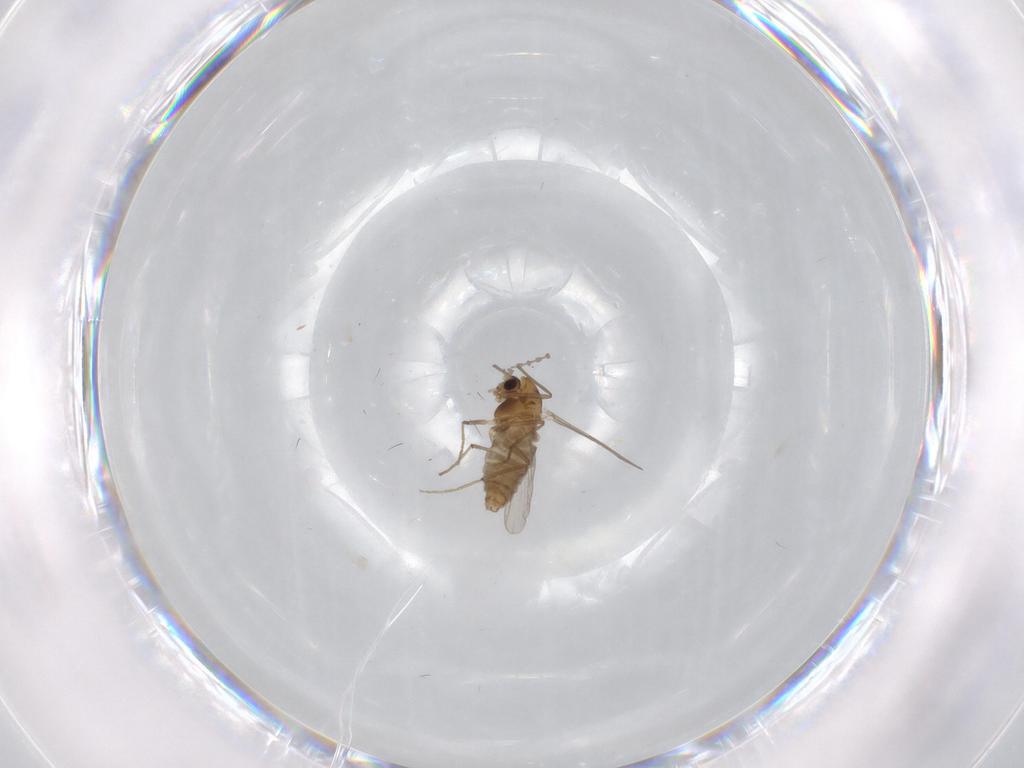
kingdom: Animalia
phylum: Arthropoda
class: Insecta
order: Diptera
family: Cecidomyiidae
